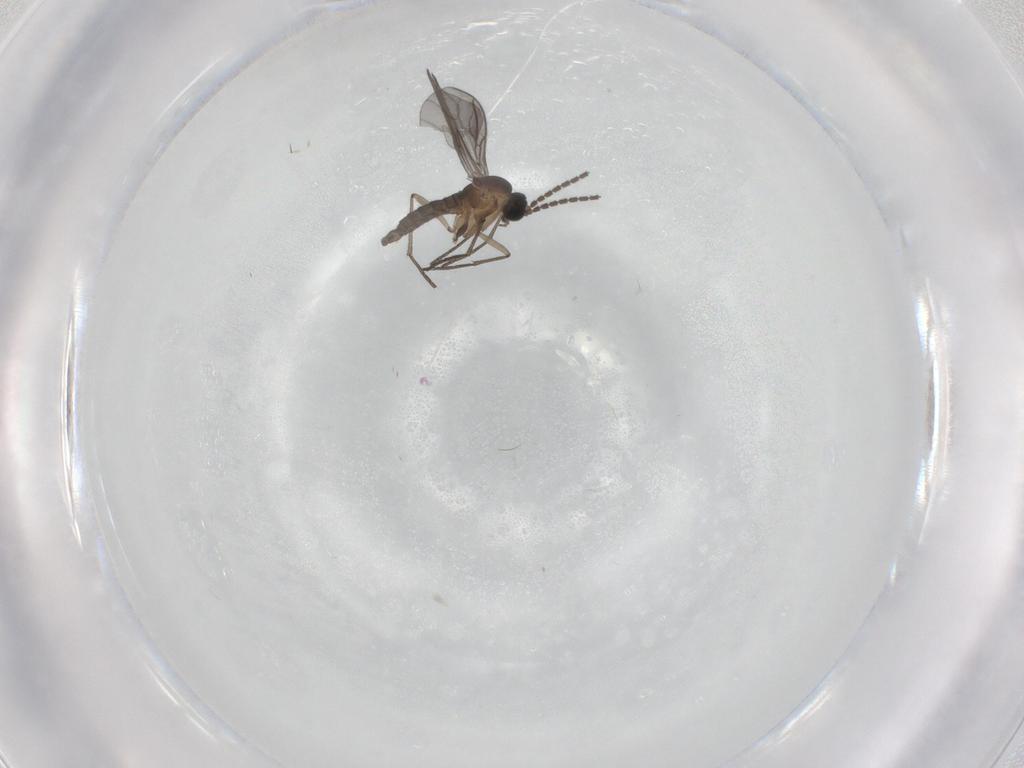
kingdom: Animalia
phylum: Arthropoda
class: Insecta
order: Diptera
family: Sciaridae
